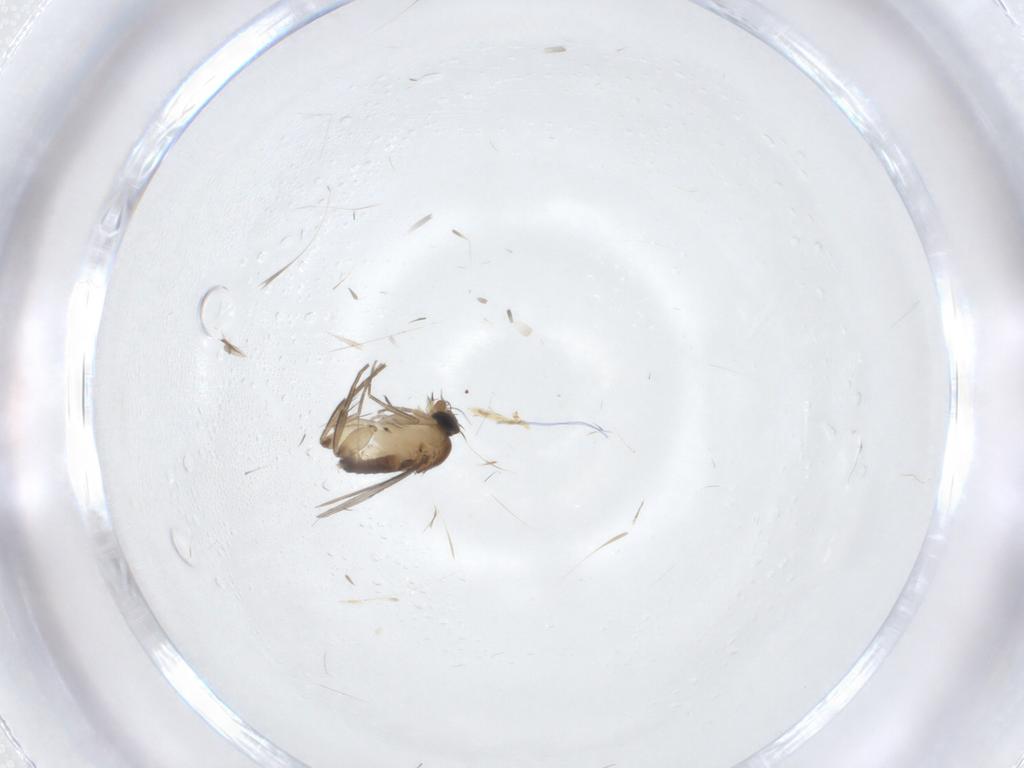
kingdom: Animalia
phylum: Arthropoda
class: Insecta
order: Diptera
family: Phoridae
